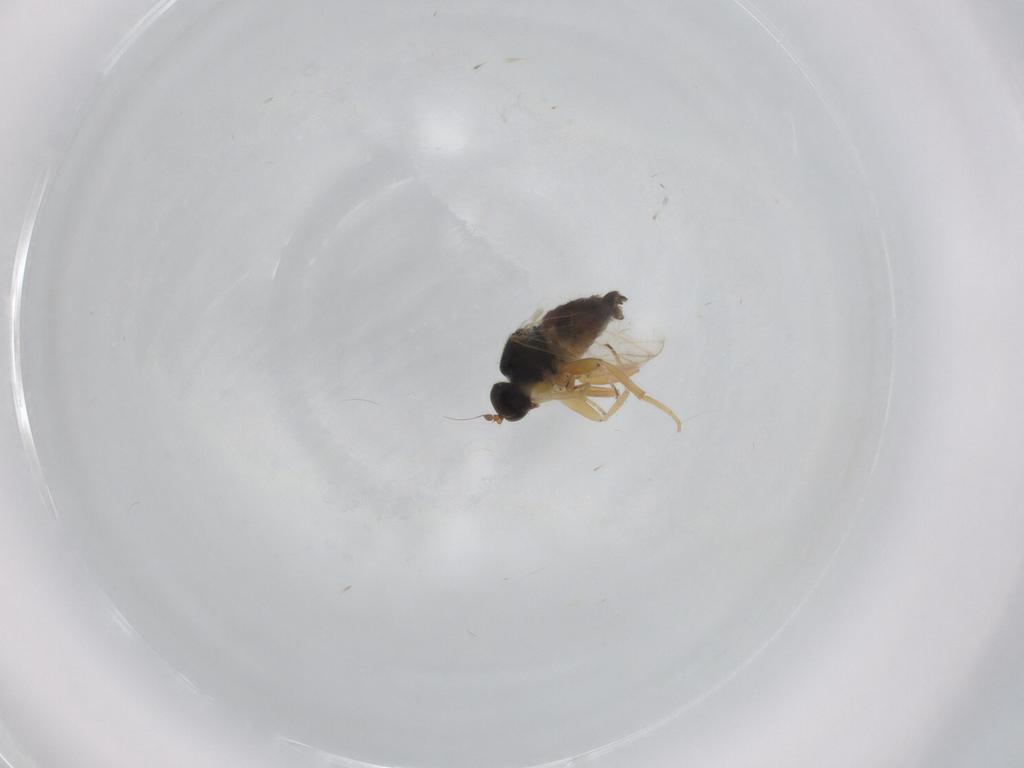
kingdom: Animalia
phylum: Arthropoda
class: Insecta
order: Diptera
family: Hybotidae
